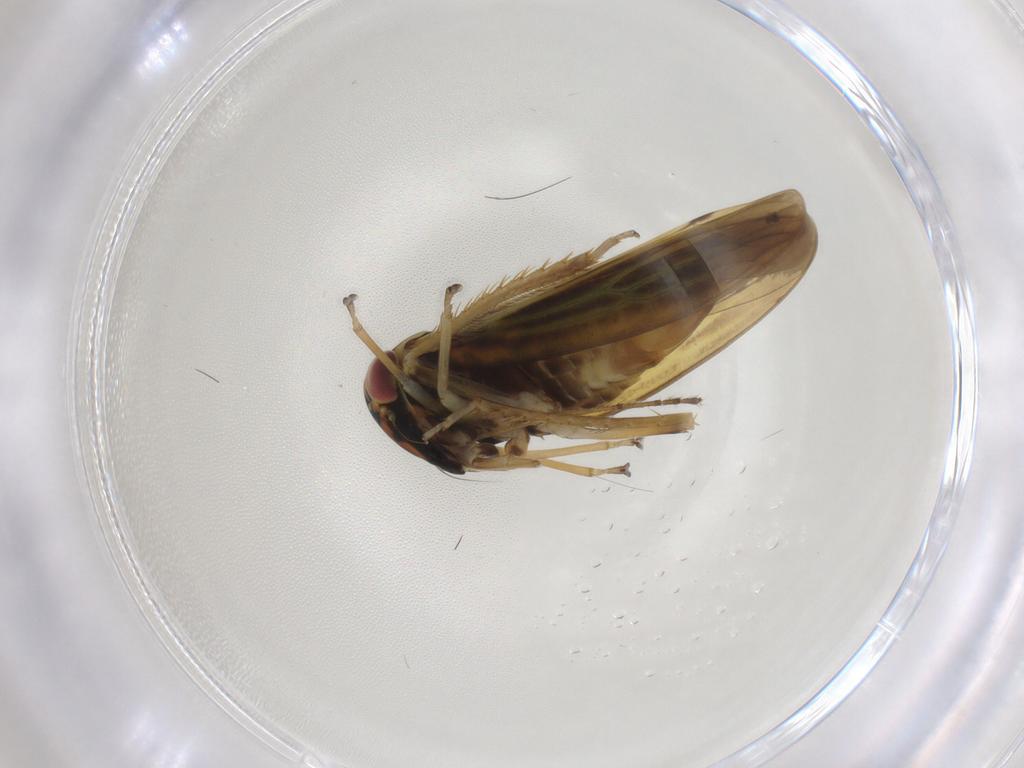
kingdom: Animalia
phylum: Arthropoda
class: Insecta
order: Hemiptera
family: Cicadellidae
